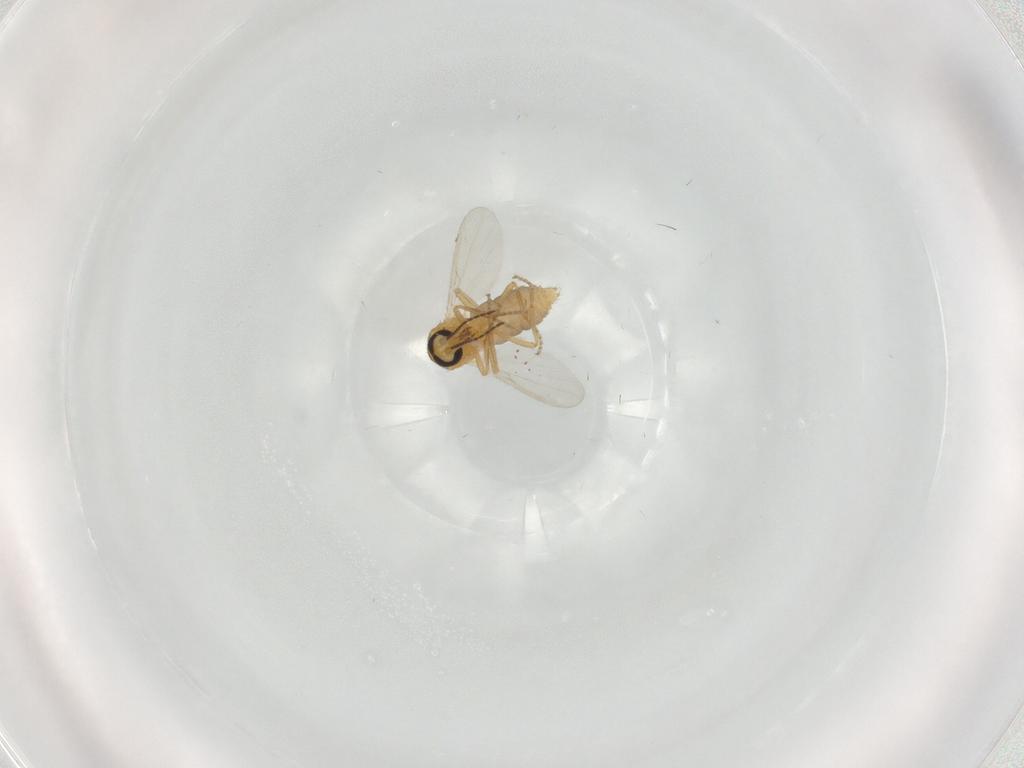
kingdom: Animalia
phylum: Arthropoda
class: Insecta
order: Diptera
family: Ceratopogonidae
